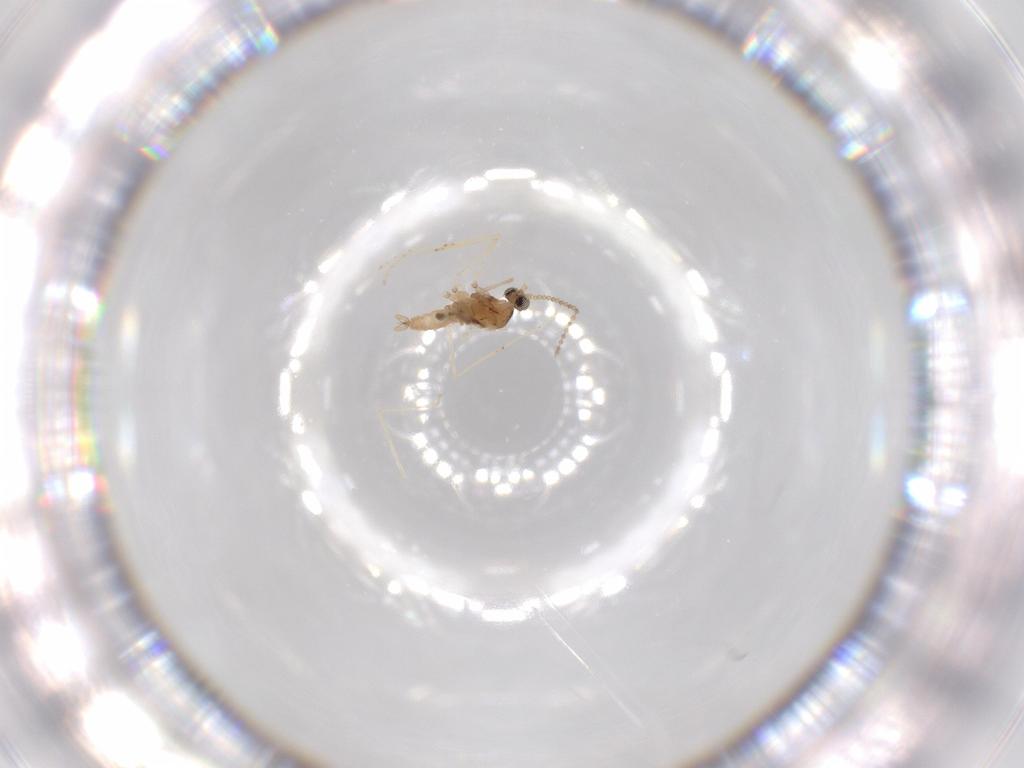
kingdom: Animalia
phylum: Arthropoda
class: Insecta
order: Diptera
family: Cecidomyiidae
